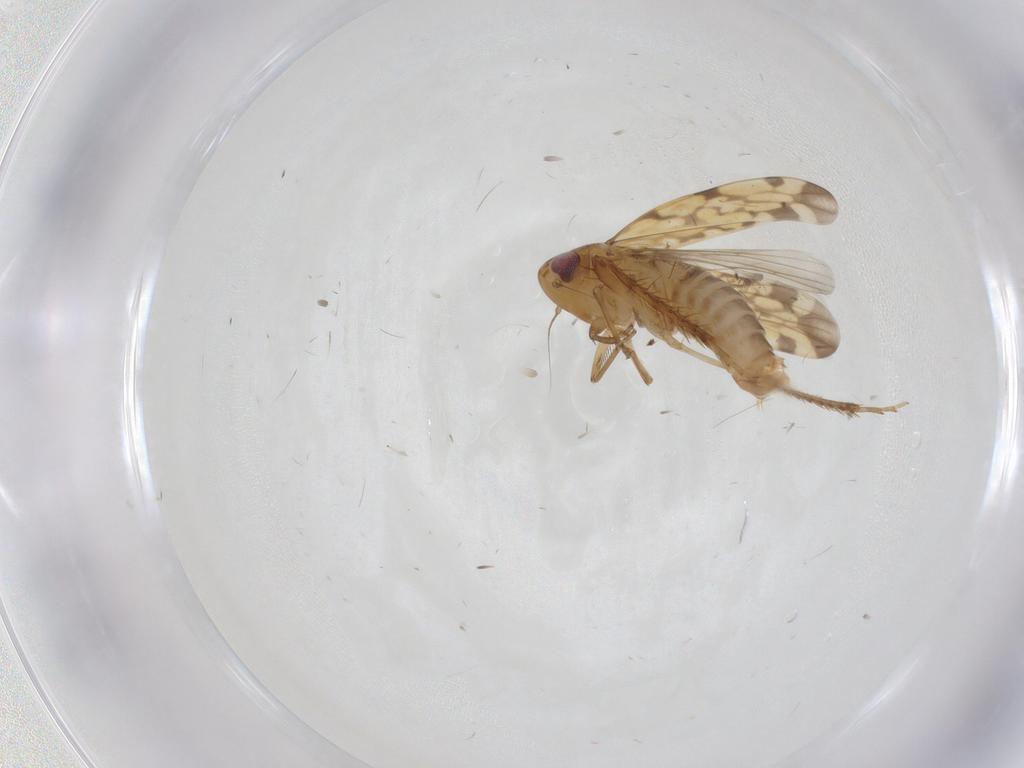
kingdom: Animalia
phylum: Arthropoda
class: Insecta
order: Hemiptera
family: Cicadellidae
